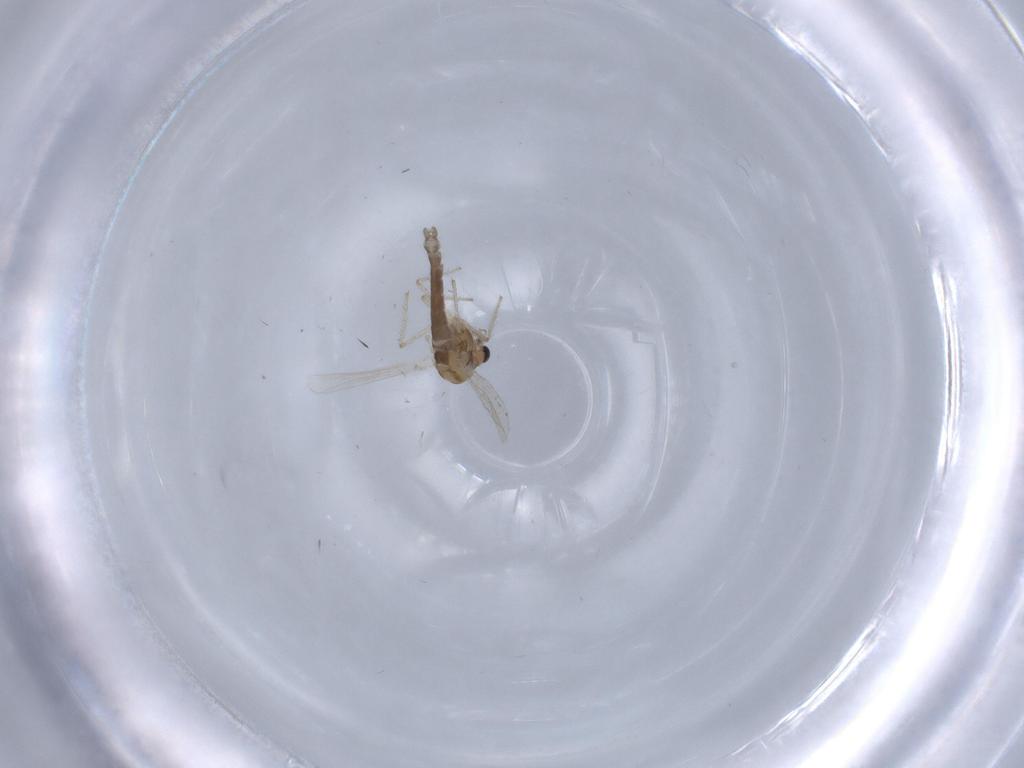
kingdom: Animalia
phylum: Arthropoda
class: Insecta
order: Diptera
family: Chironomidae
